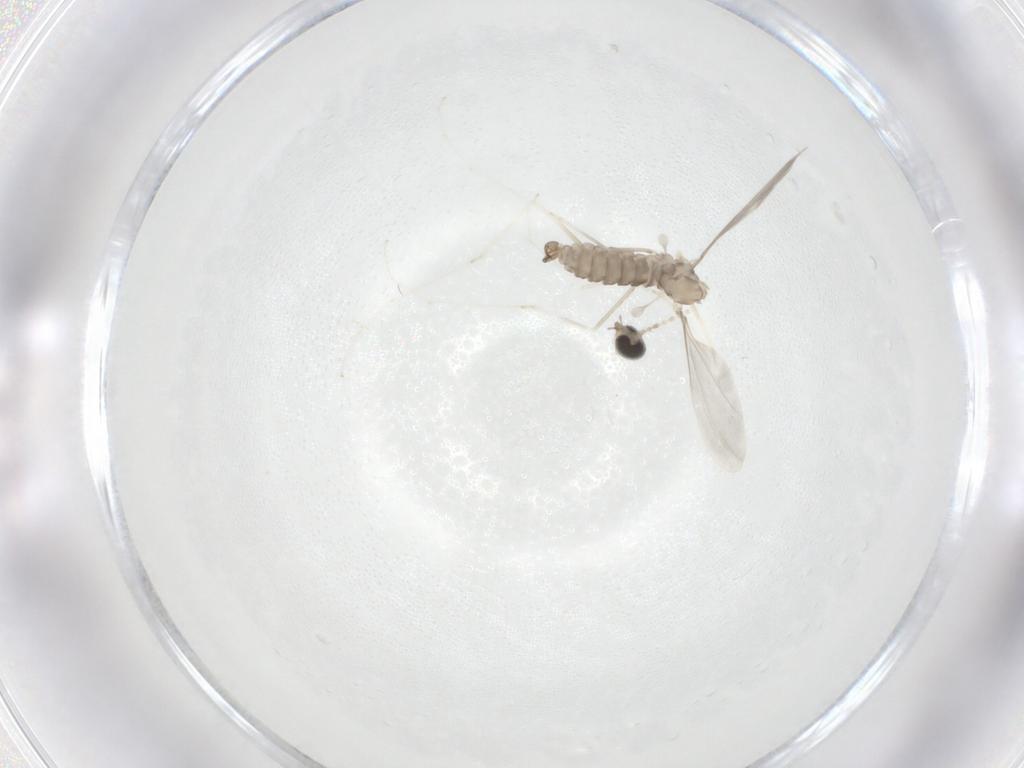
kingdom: Animalia
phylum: Arthropoda
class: Insecta
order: Diptera
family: Cecidomyiidae
